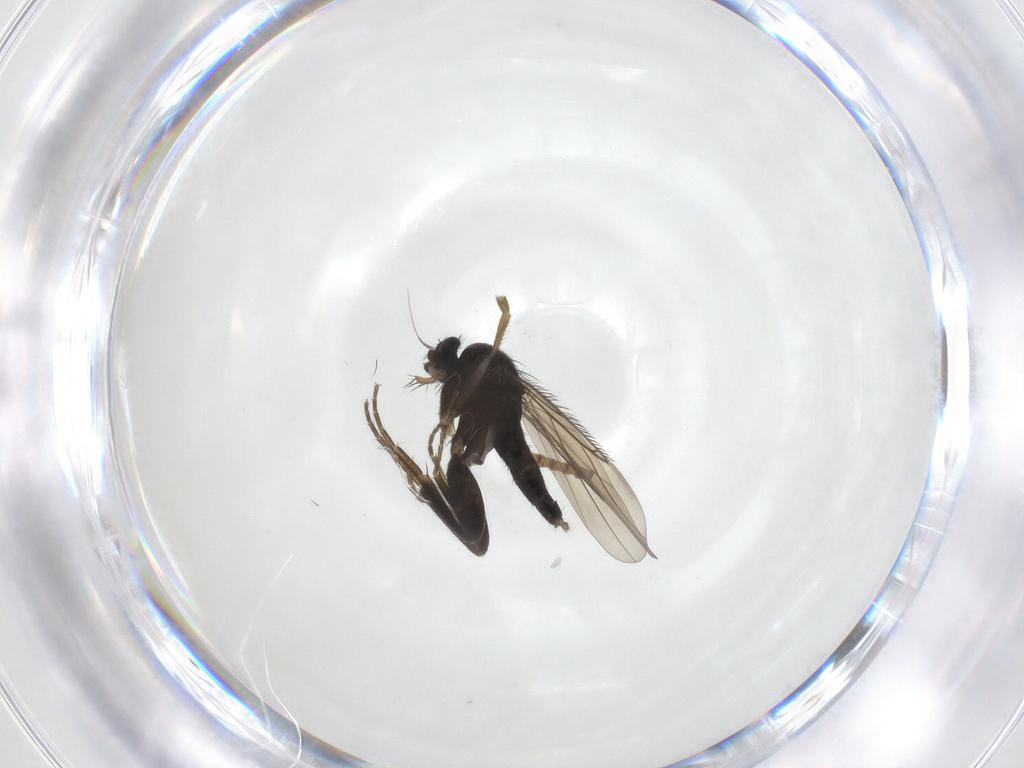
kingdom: Animalia
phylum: Arthropoda
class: Insecta
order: Diptera
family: Phoridae
